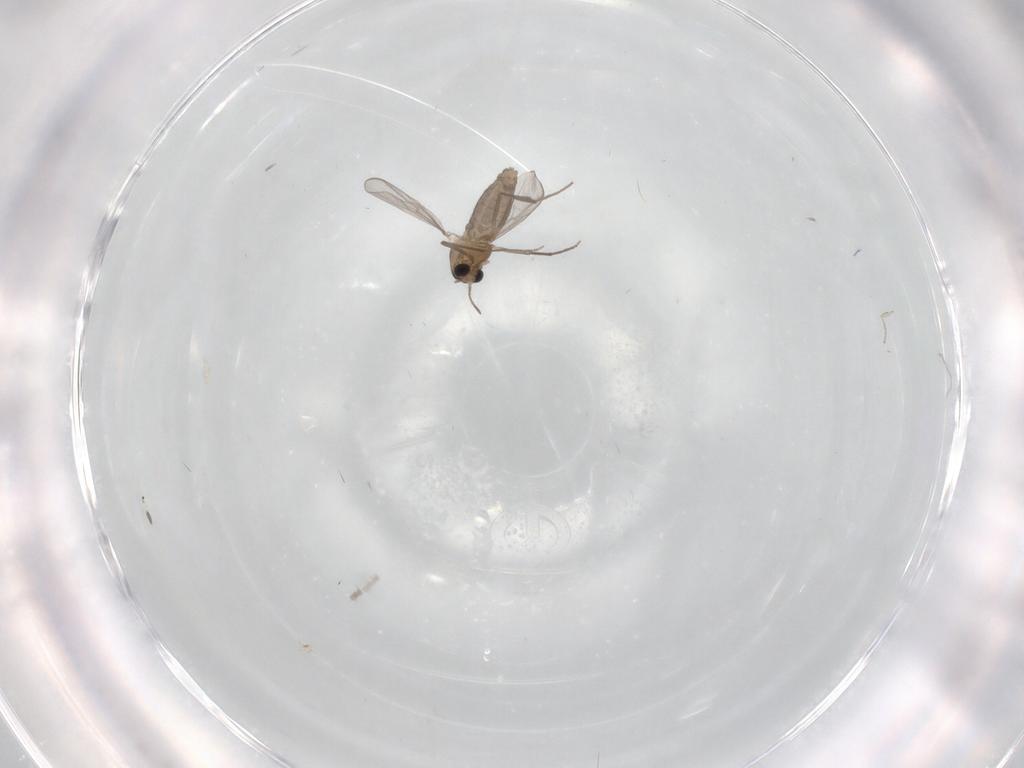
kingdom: Animalia
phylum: Arthropoda
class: Insecta
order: Diptera
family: Chironomidae
